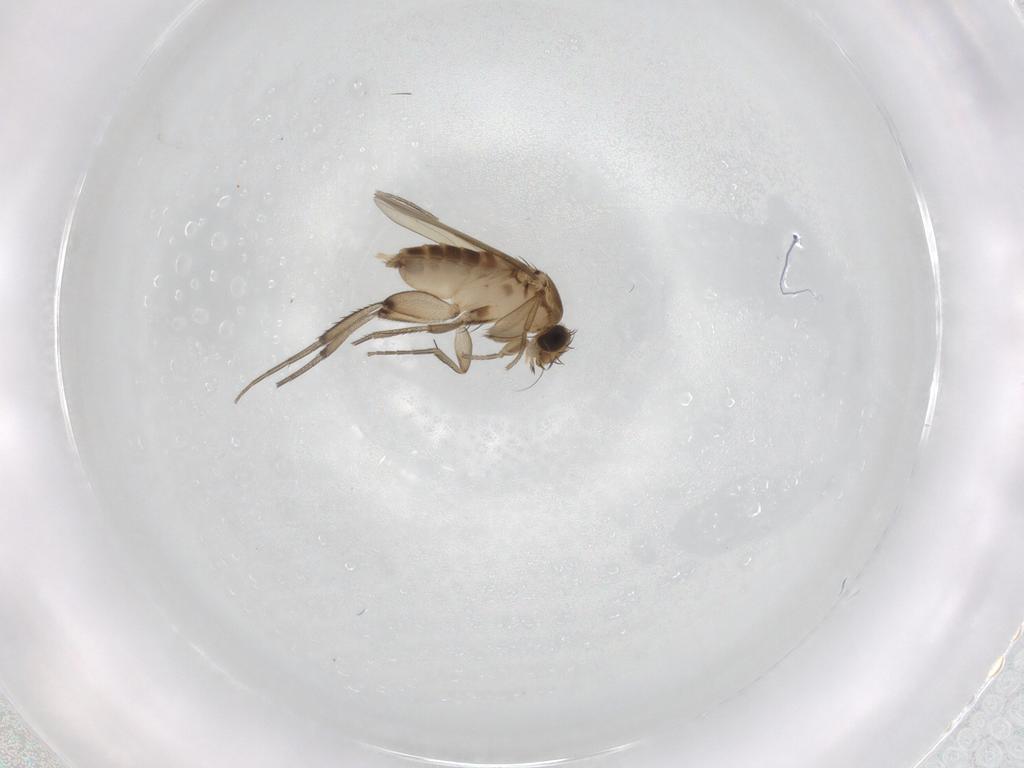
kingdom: Animalia
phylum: Arthropoda
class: Insecta
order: Diptera
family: Phoridae
